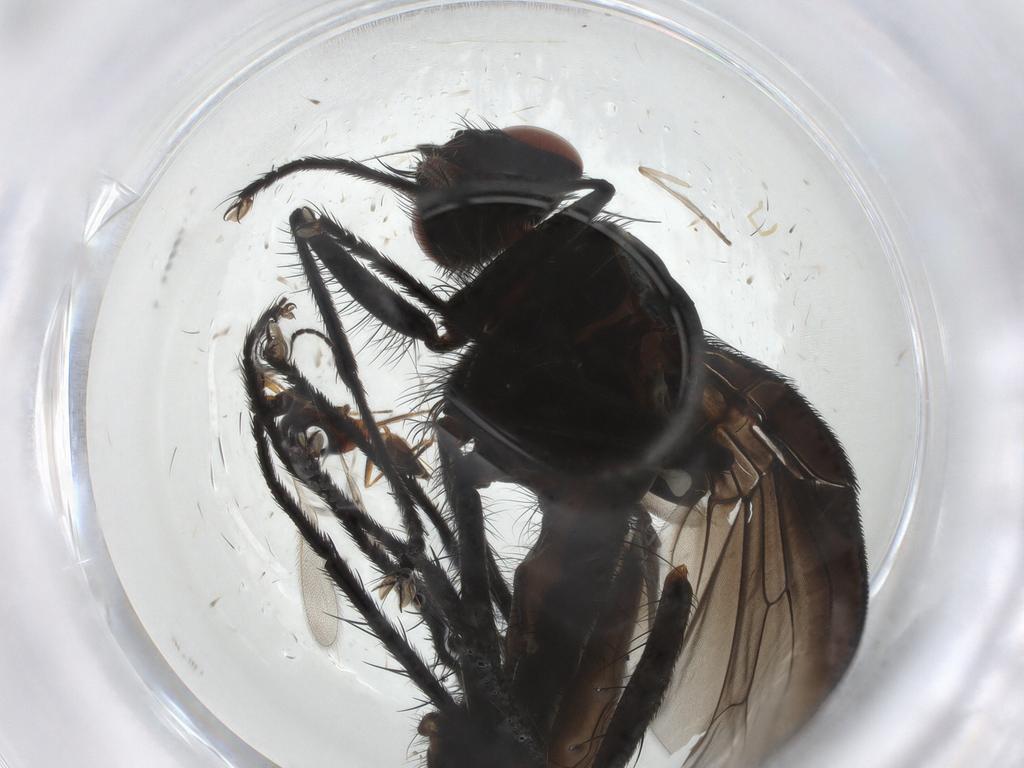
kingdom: Animalia
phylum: Arthropoda
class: Insecta
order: Diptera
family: Anthomyiidae
